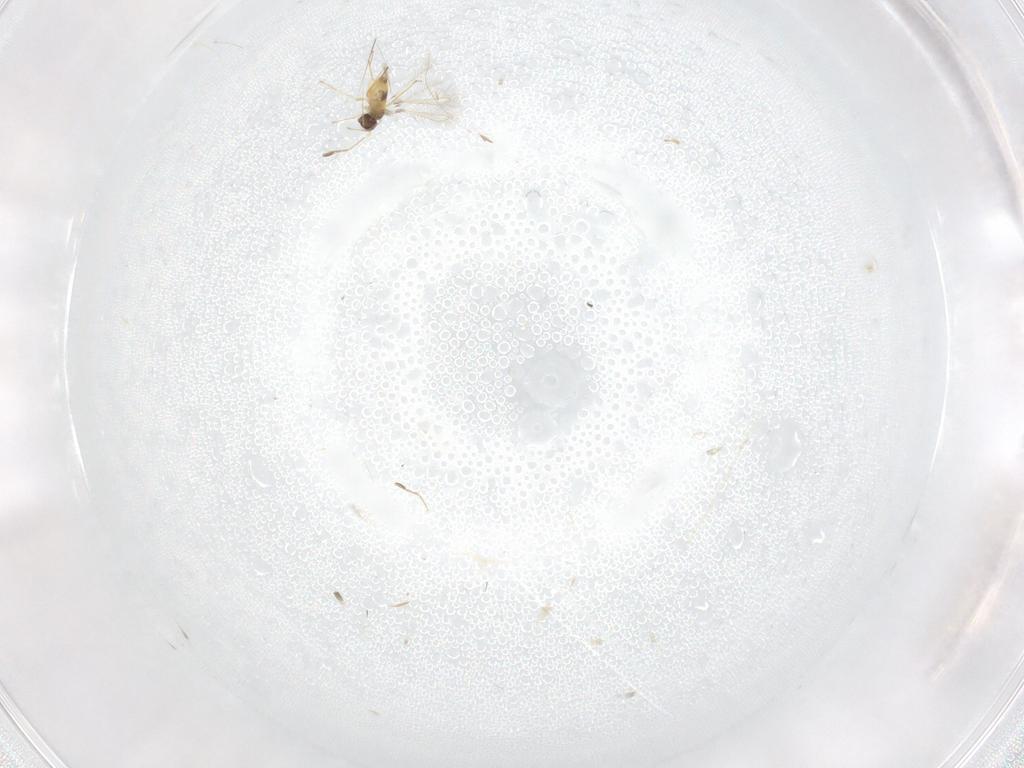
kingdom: Animalia
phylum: Arthropoda
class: Insecta
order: Hymenoptera
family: Mymaridae
